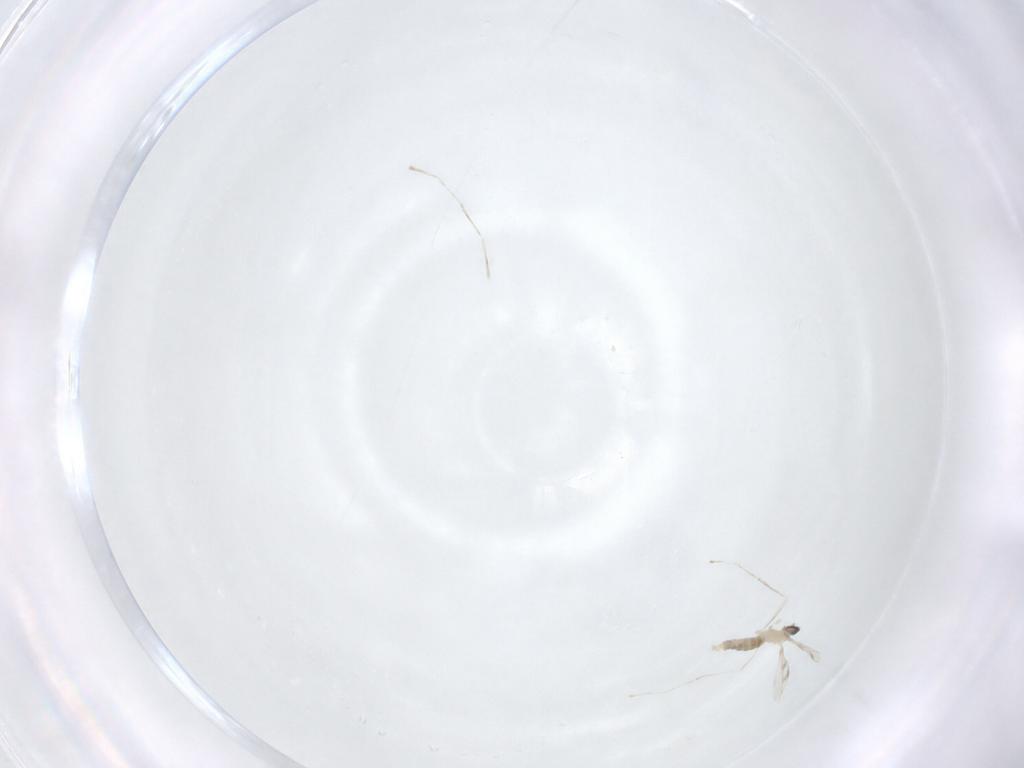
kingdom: Animalia
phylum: Arthropoda
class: Insecta
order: Diptera
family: Cecidomyiidae
